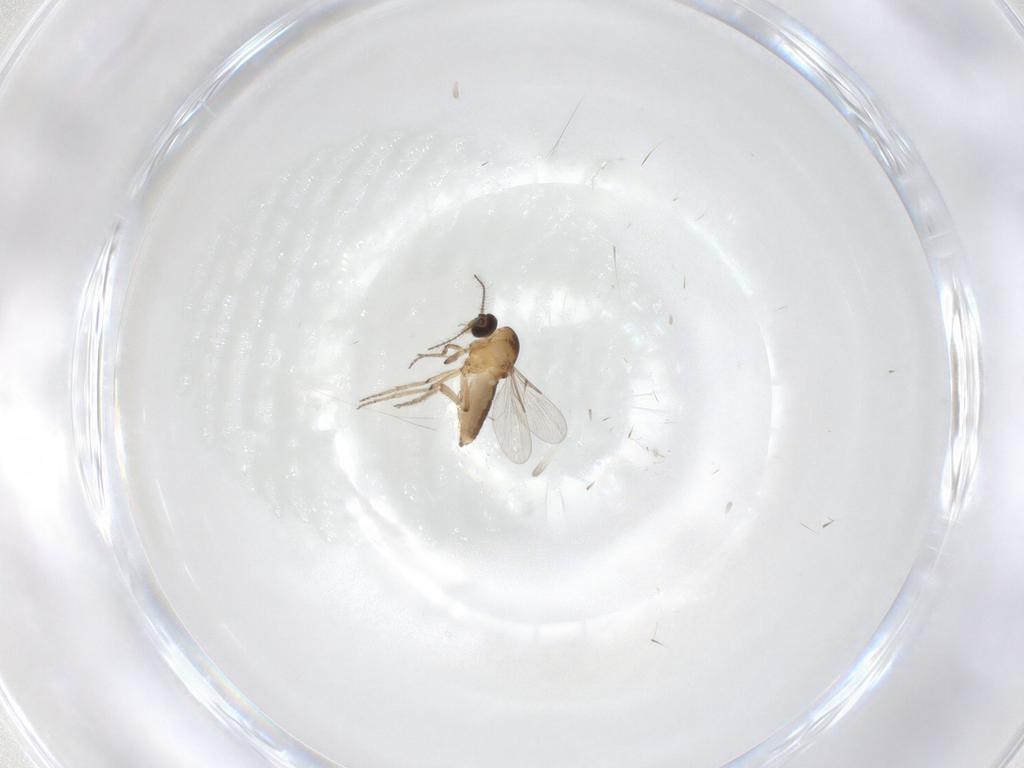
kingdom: Animalia
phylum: Arthropoda
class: Insecta
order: Diptera
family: Ceratopogonidae
